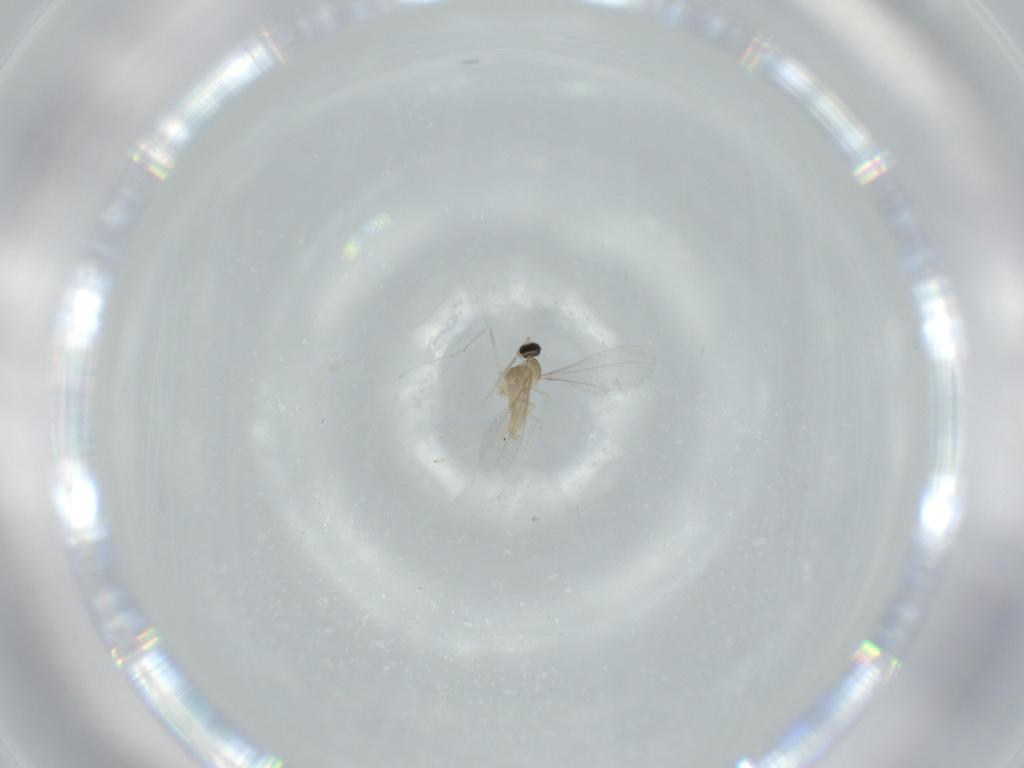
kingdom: Animalia
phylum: Arthropoda
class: Insecta
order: Diptera
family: Cecidomyiidae
